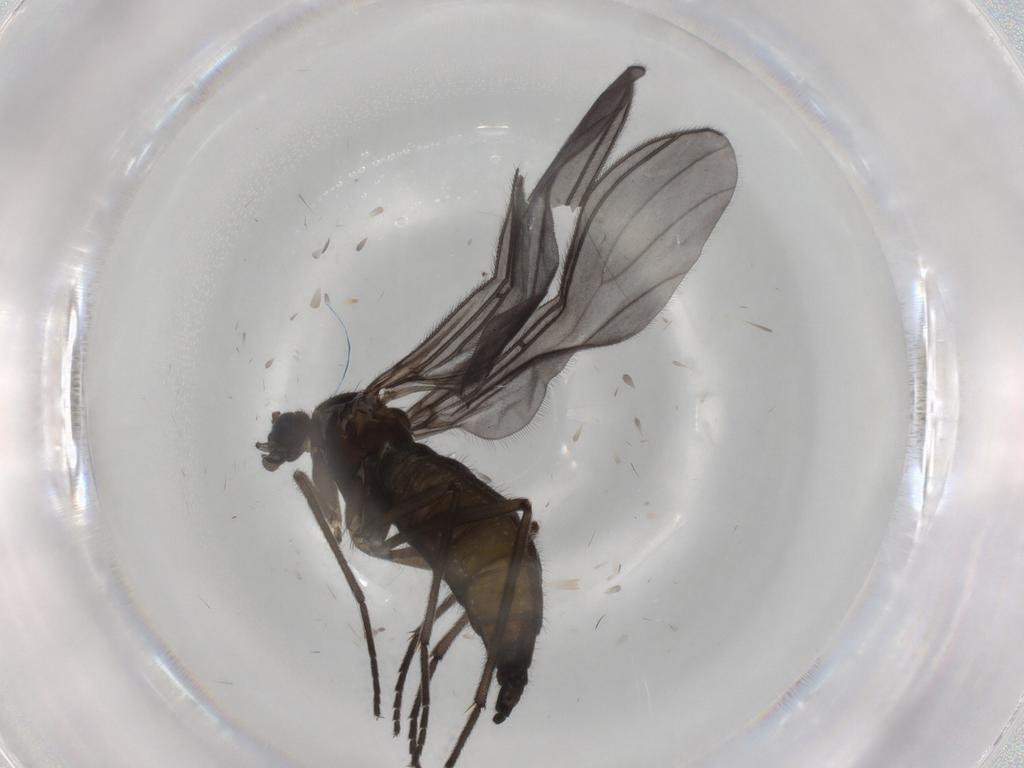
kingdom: Animalia
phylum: Arthropoda
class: Insecta
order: Diptera
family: Sciaridae
